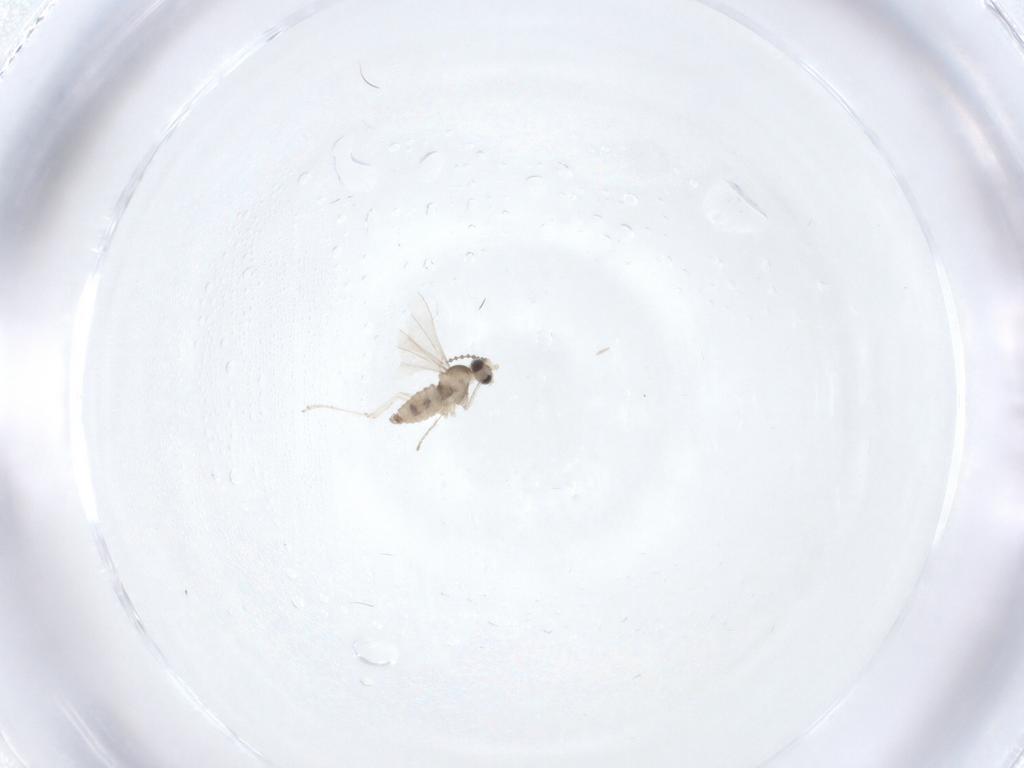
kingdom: Animalia
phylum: Arthropoda
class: Insecta
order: Diptera
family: Cecidomyiidae
